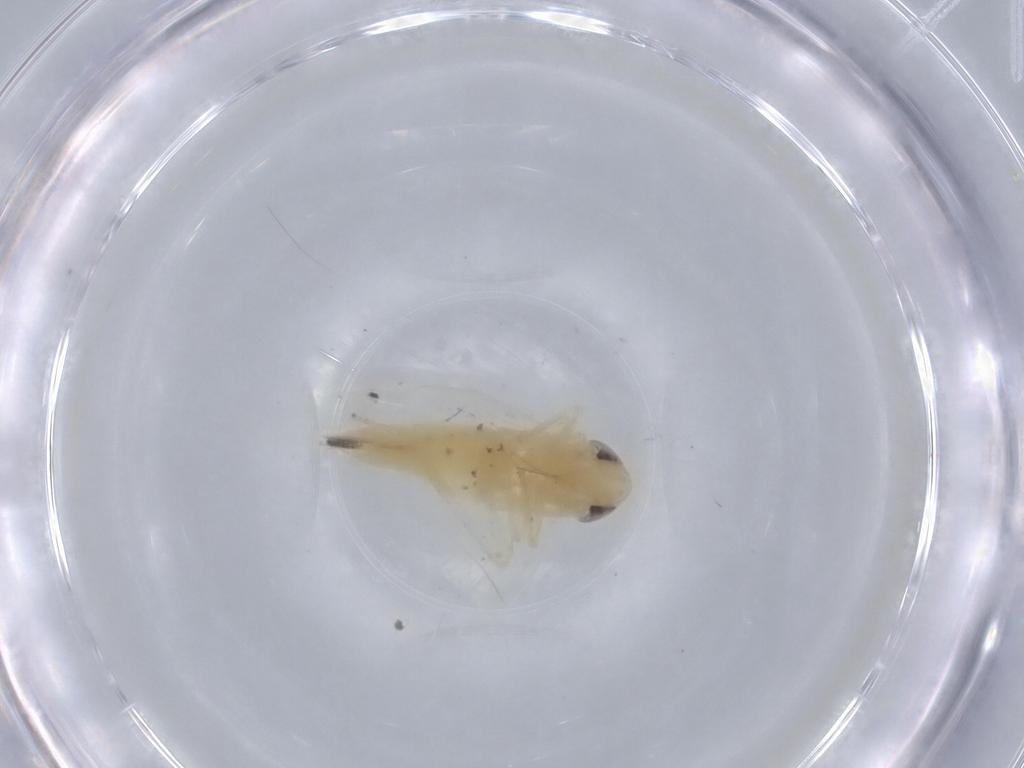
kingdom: Animalia
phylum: Arthropoda
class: Insecta
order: Hemiptera
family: Cicadellidae
